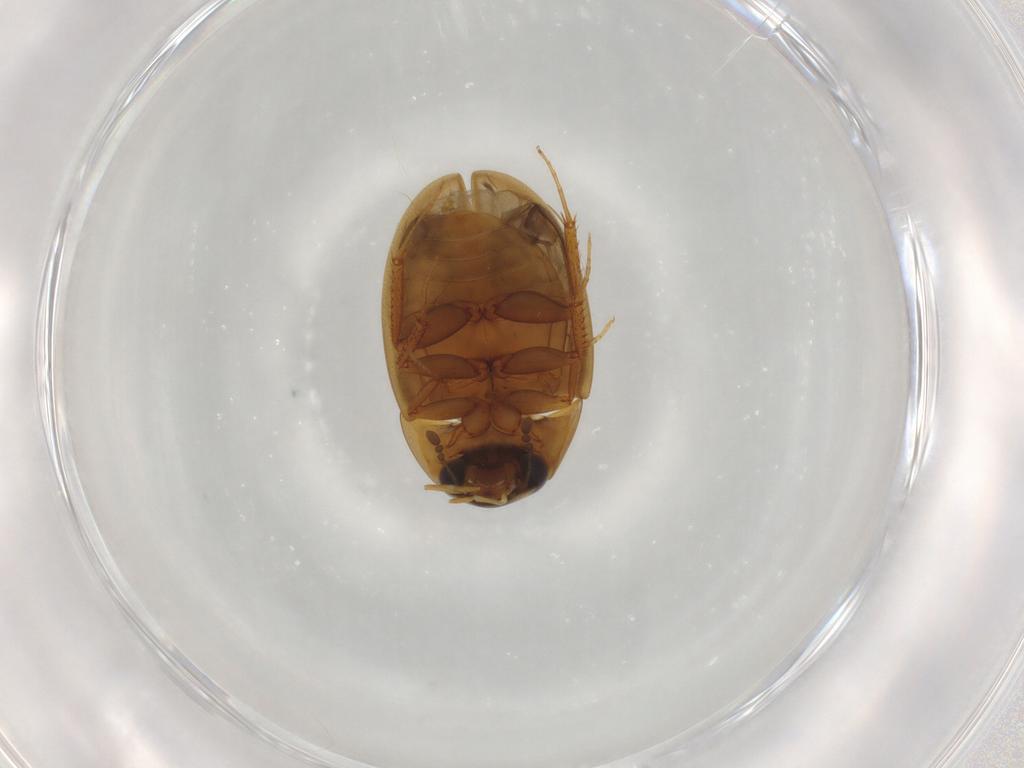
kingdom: Animalia
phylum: Arthropoda
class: Insecta
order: Coleoptera
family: Hydrophilidae
